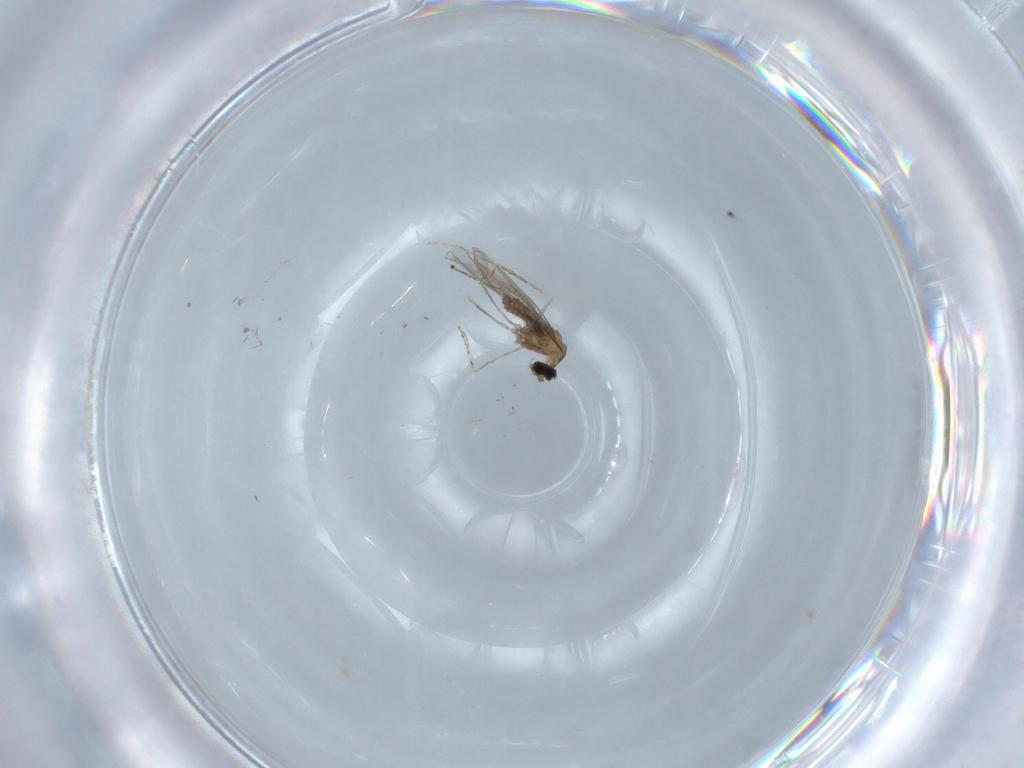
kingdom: Animalia
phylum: Arthropoda
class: Insecta
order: Diptera
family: Cecidomyiidae
